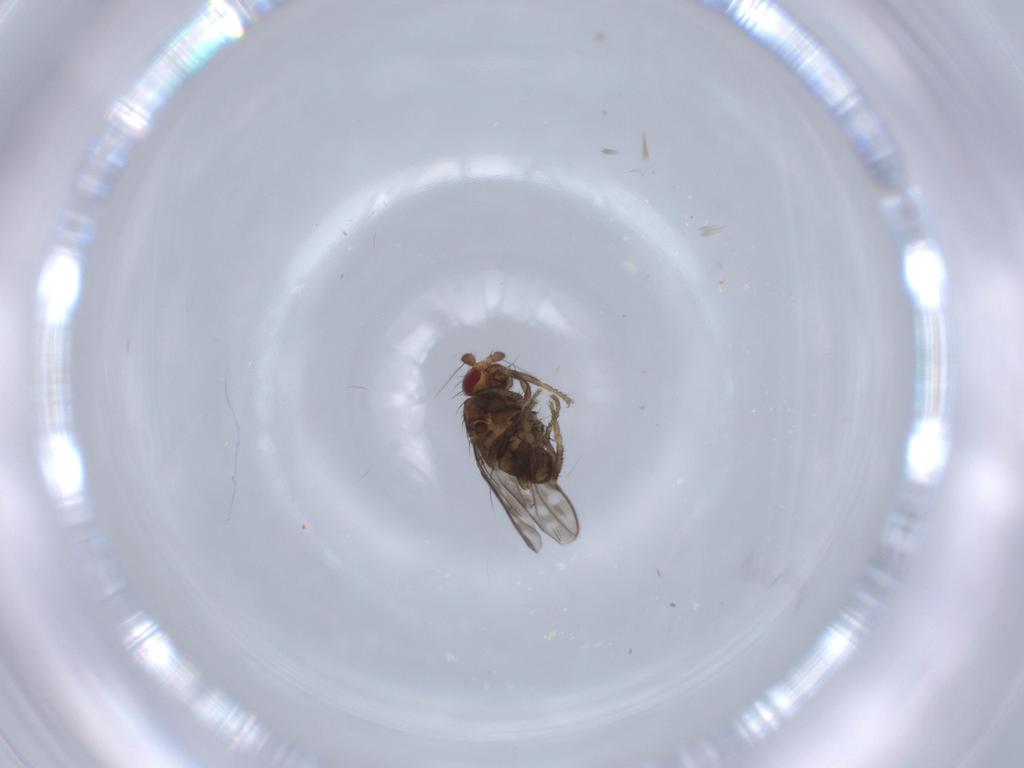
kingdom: Animalia
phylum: Arthropoda
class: Insecta
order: Diptera
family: Sphaeroceridae
